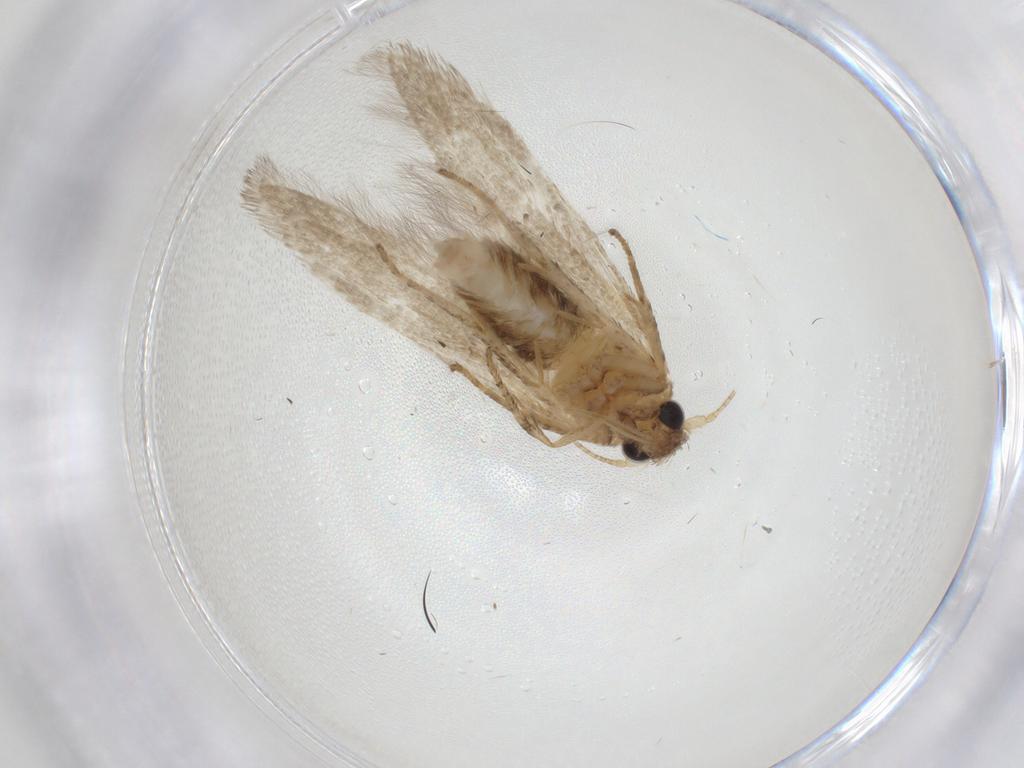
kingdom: Animalia
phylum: Arthropoda
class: Insecta
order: Lepidoptera
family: Blastobasidae
